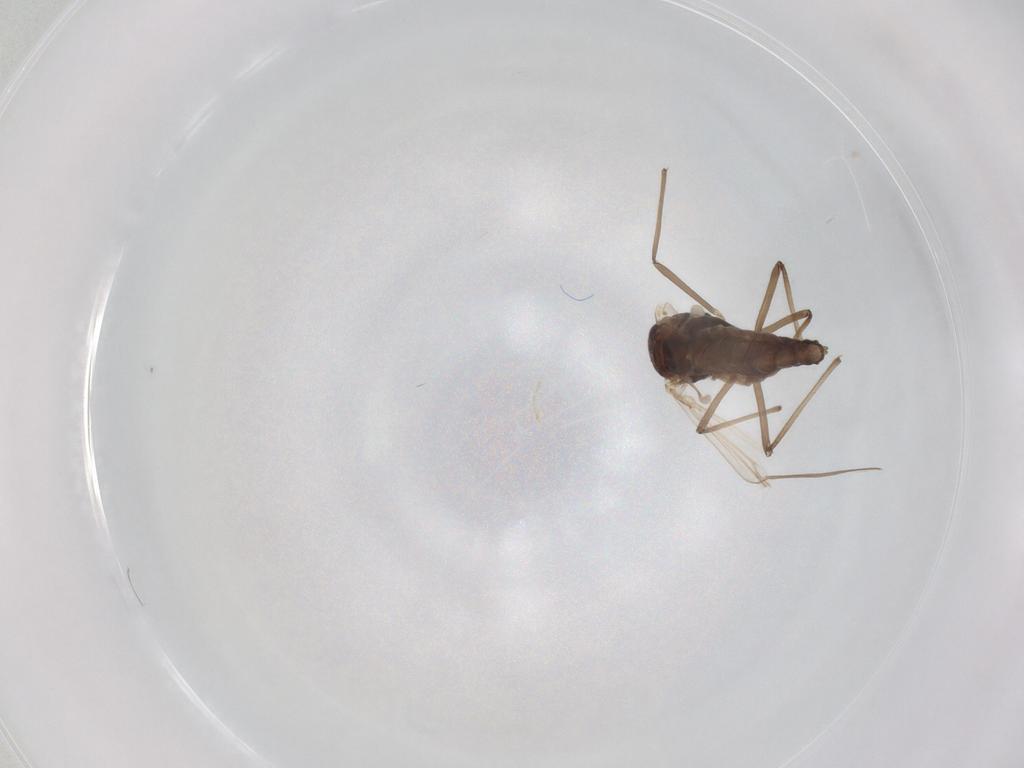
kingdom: Animalia
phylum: Arthropoda
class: Insecta
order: Diptera
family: Chironomidae
